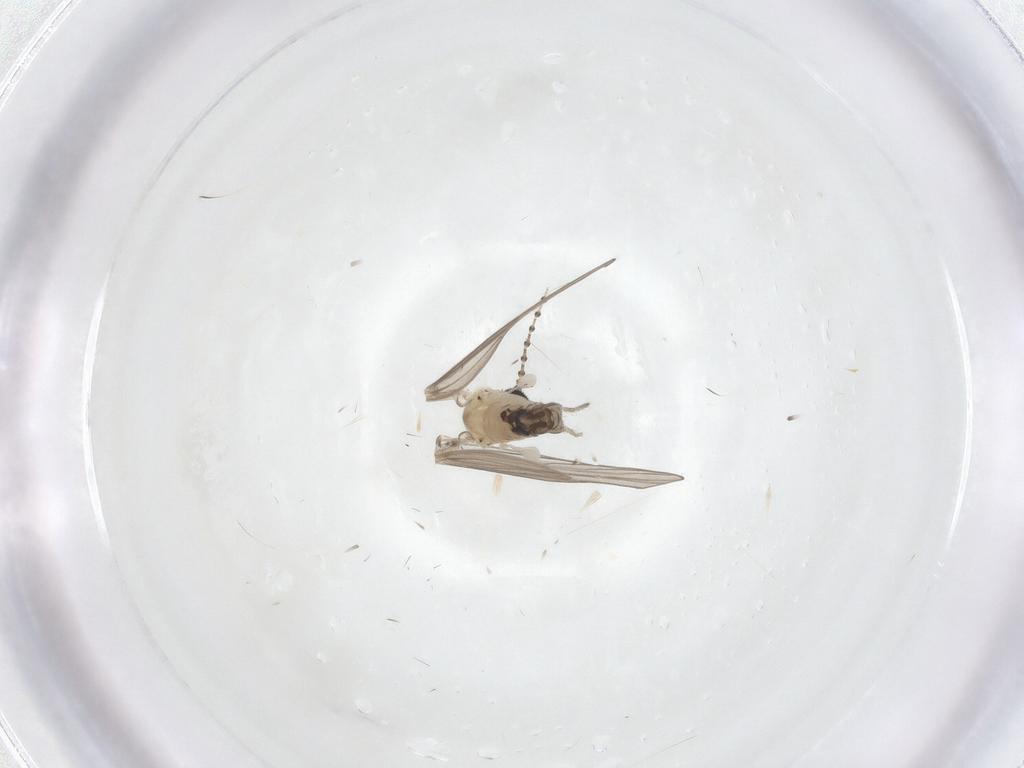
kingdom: Animalia
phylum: Arthropoda
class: Insecta
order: Diptera
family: Psychodidae
